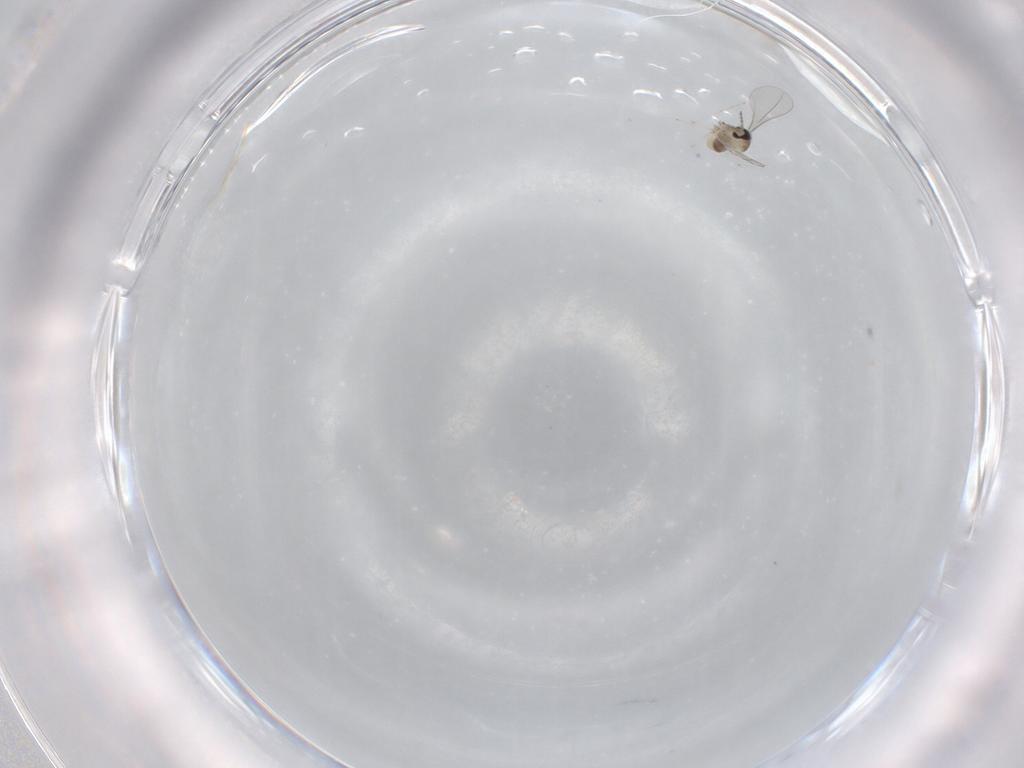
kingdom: Animalia
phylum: Arthropoda
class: Insecta
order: Diptera
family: Cecidomyiidae
